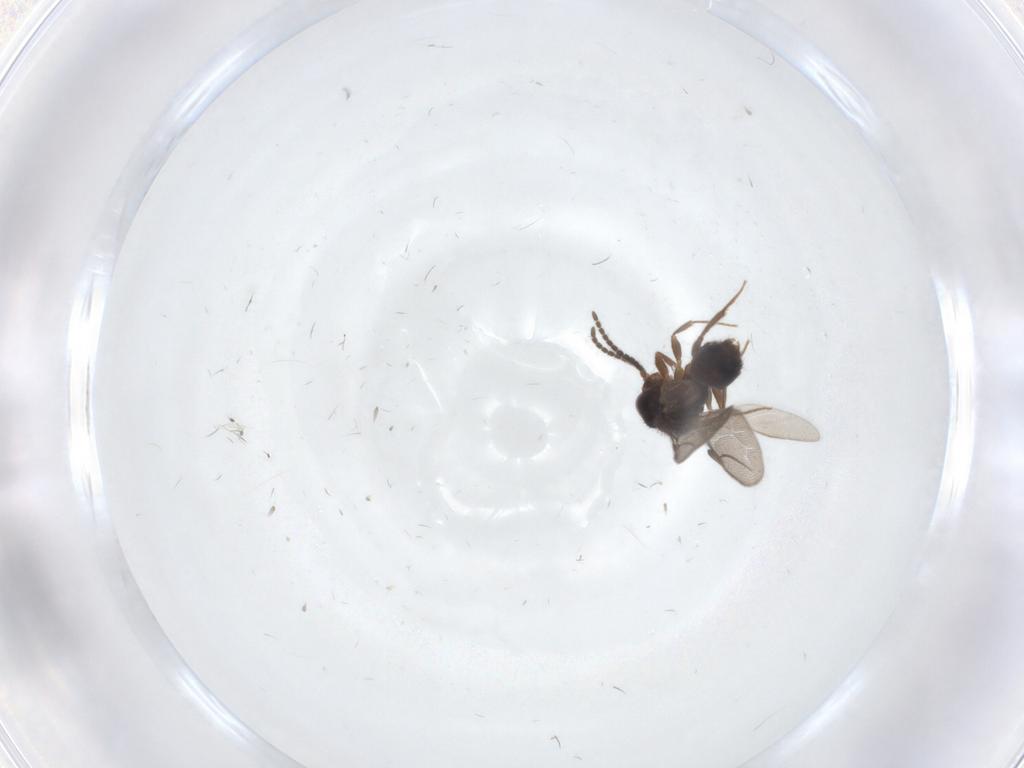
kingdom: Animalia
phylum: Arthropoda
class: Insecta
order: Hymenoptera
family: Bethylidae
